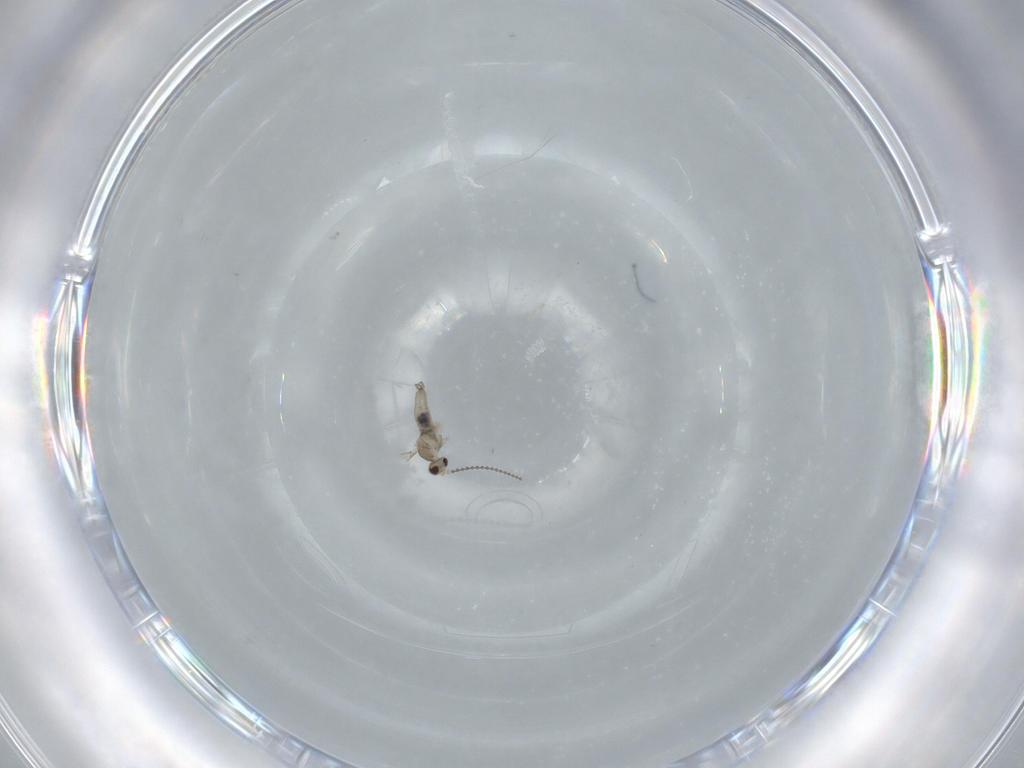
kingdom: Animalia
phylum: Arthropoda
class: Insecta
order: Diptera
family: Cecidomyiidae
